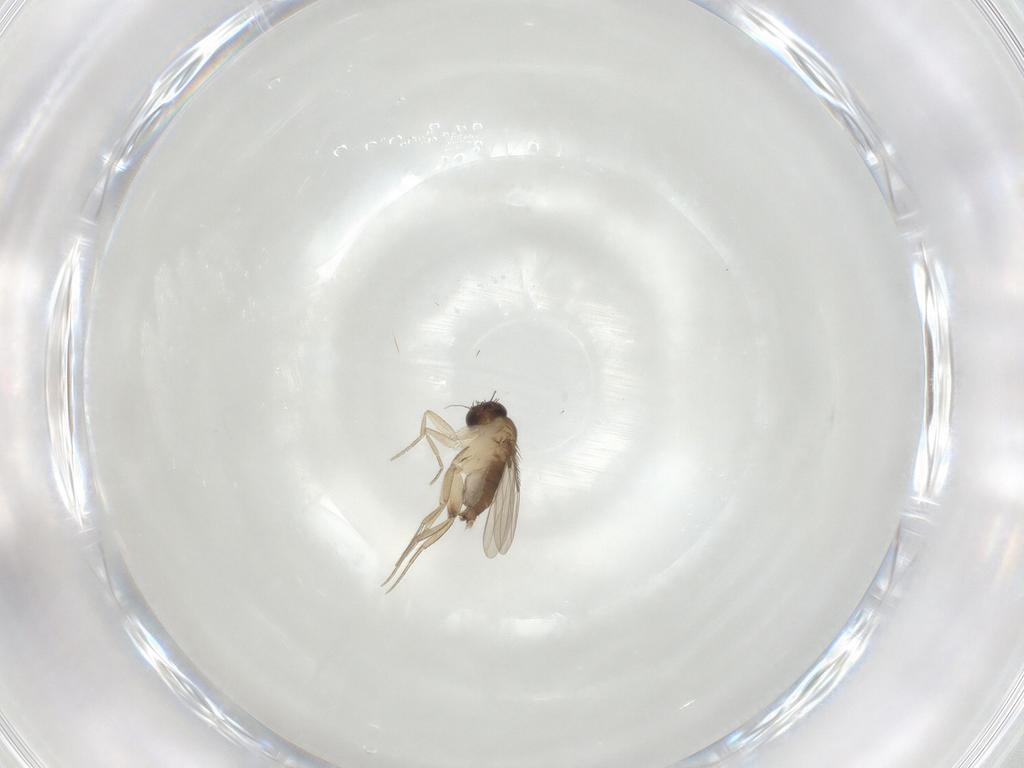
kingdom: Animalia
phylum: Arthropoda
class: Insecta
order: Diptera
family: Phoridae
